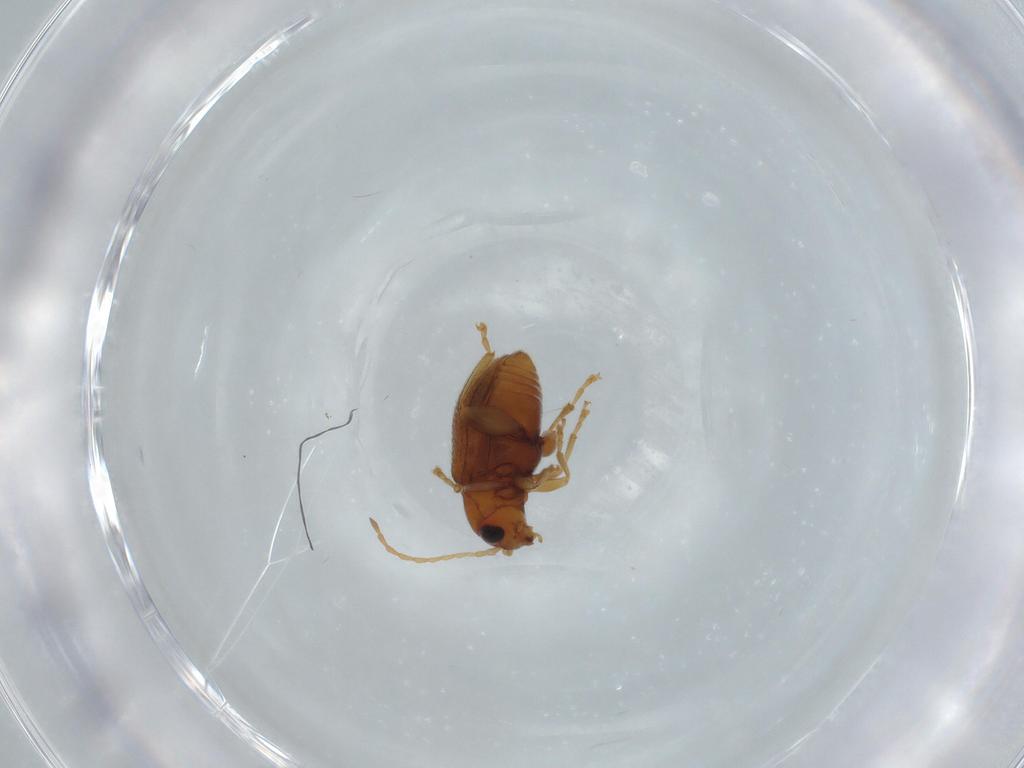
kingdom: Animalia
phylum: Arthropoda
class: Insecta
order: Coleoptera
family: Chrysomelidae
